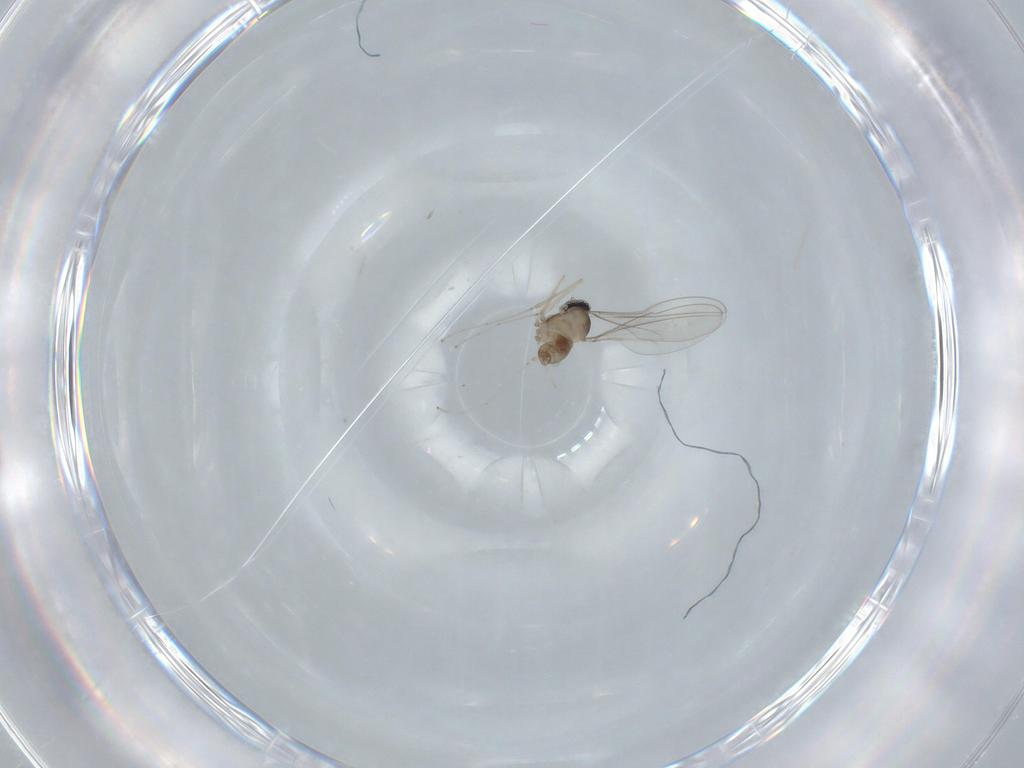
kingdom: Animalia
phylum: Arthropoda
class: Insecta
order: Diptera
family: Cecidomyiidae
